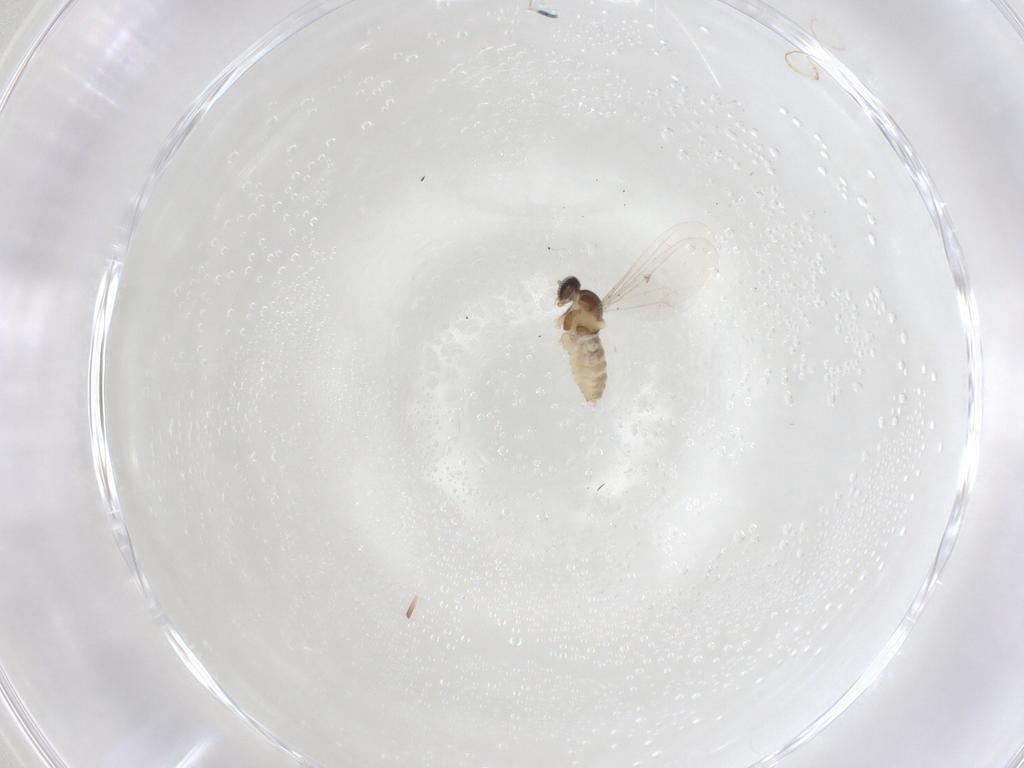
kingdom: Animalia
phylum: Arthropoda
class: Insecta
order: Diptera
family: Cecidomyiidae
